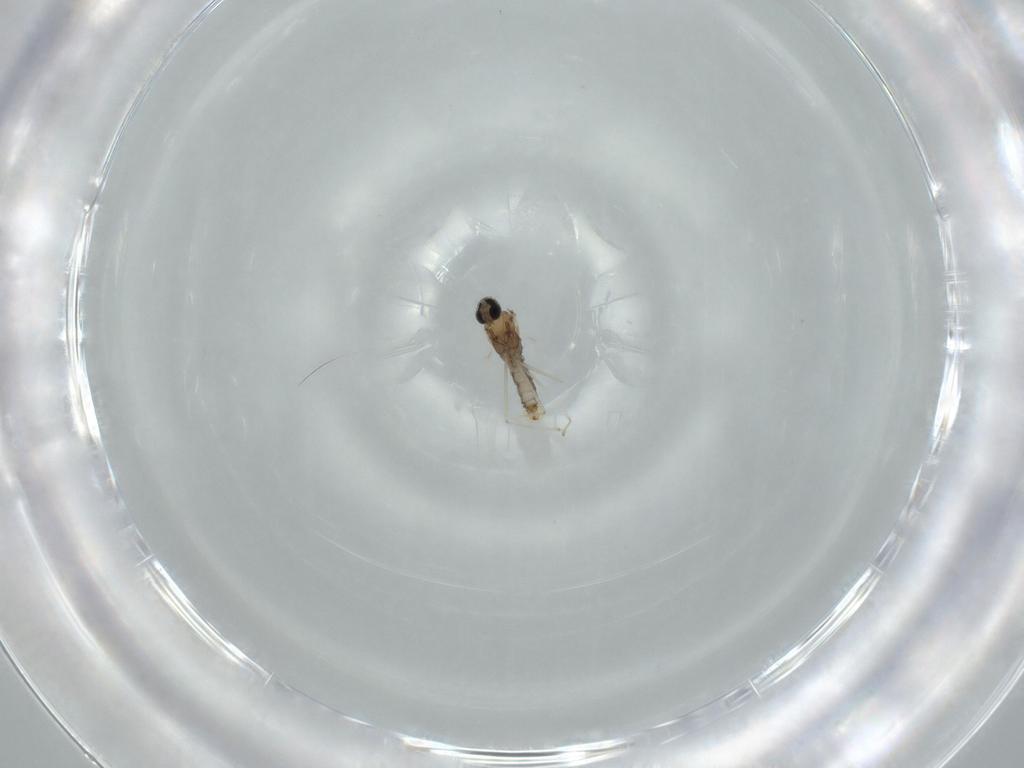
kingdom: Animalia
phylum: Arthropoda
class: Insecta
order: Diptera
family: Cecidomyiidae
